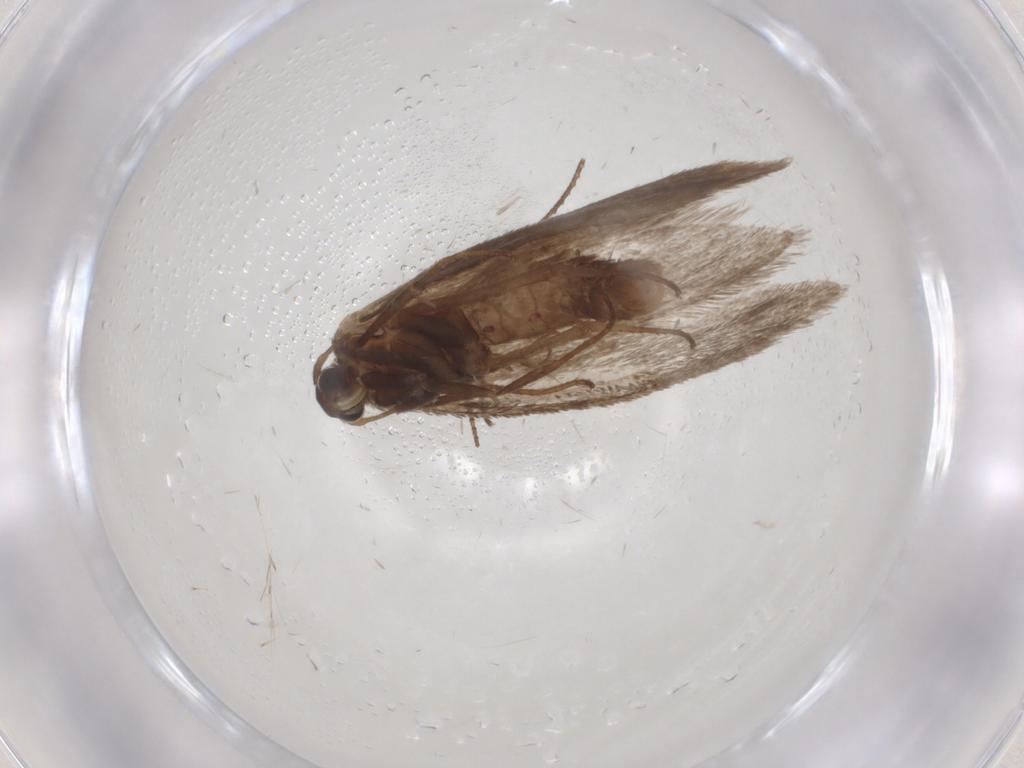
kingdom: Animalia
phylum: Arthropoda
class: Insecta
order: Lepidoptera
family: Limacodidae
